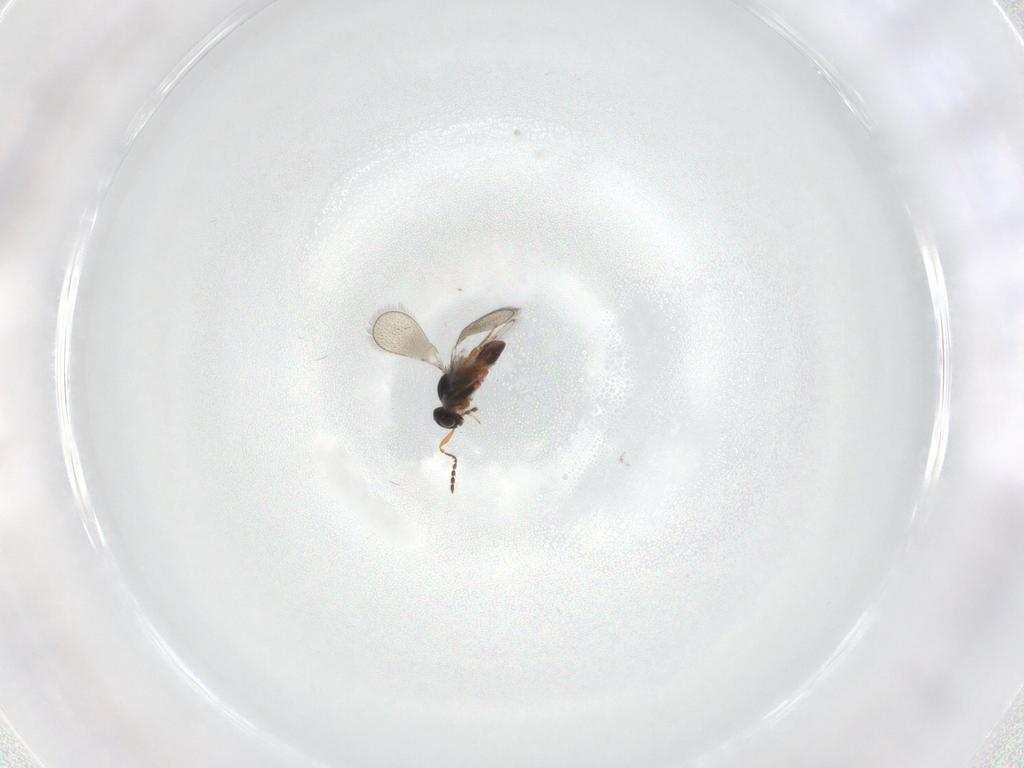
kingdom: Animalia
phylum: Arthropoda
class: Insecta
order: Hymenoptera
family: Platygastridae
